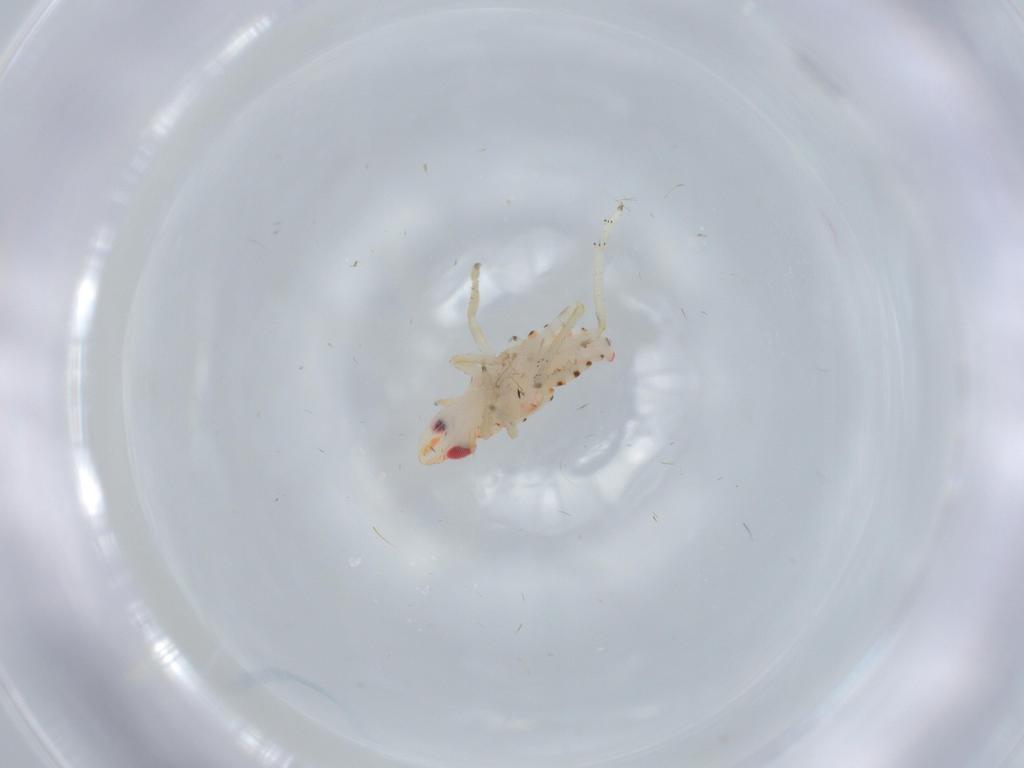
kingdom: Animalia
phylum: Arthropoda
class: Insecta
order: Hemiptera
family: Tropiduchidae
